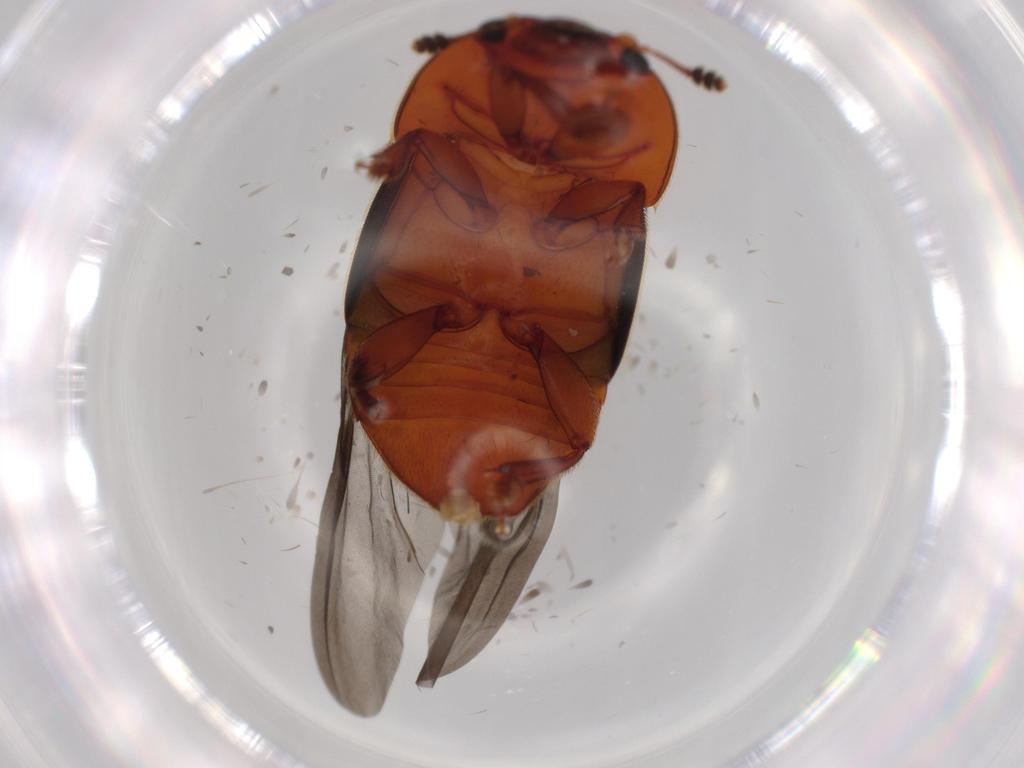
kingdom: Animalia
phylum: Arthropoda
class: Insecta
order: Coleoptera
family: Nitidulidae
